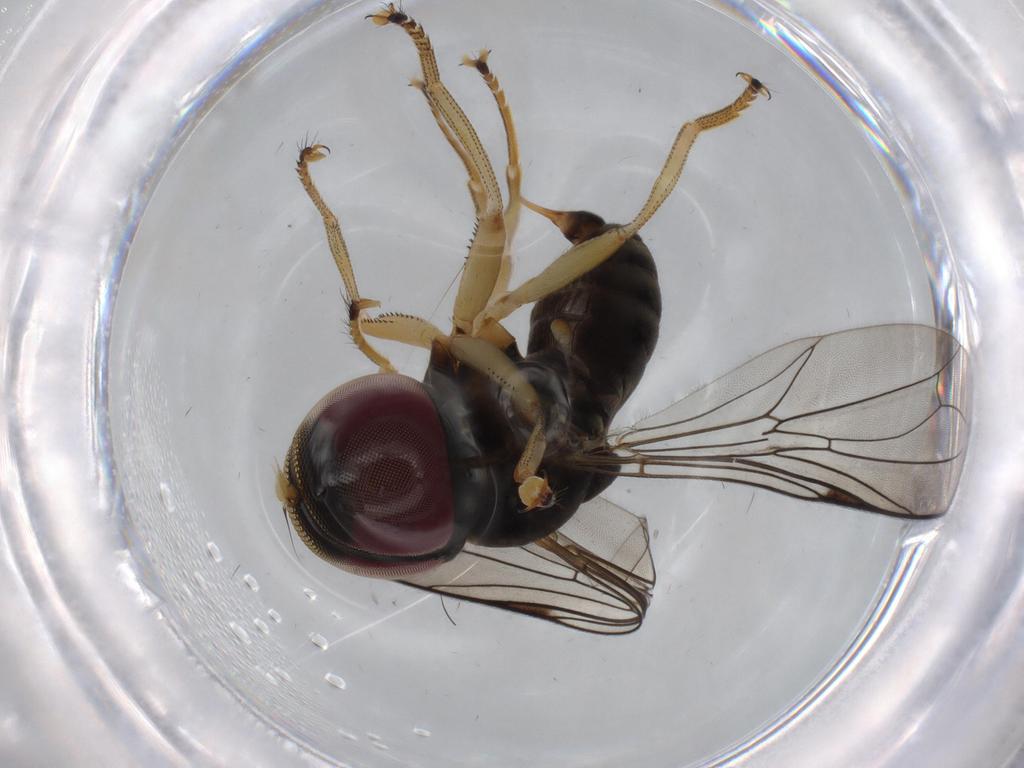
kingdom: Animalia
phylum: Arthropoda
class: Insecta
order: Diptera
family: Pipunculidae
